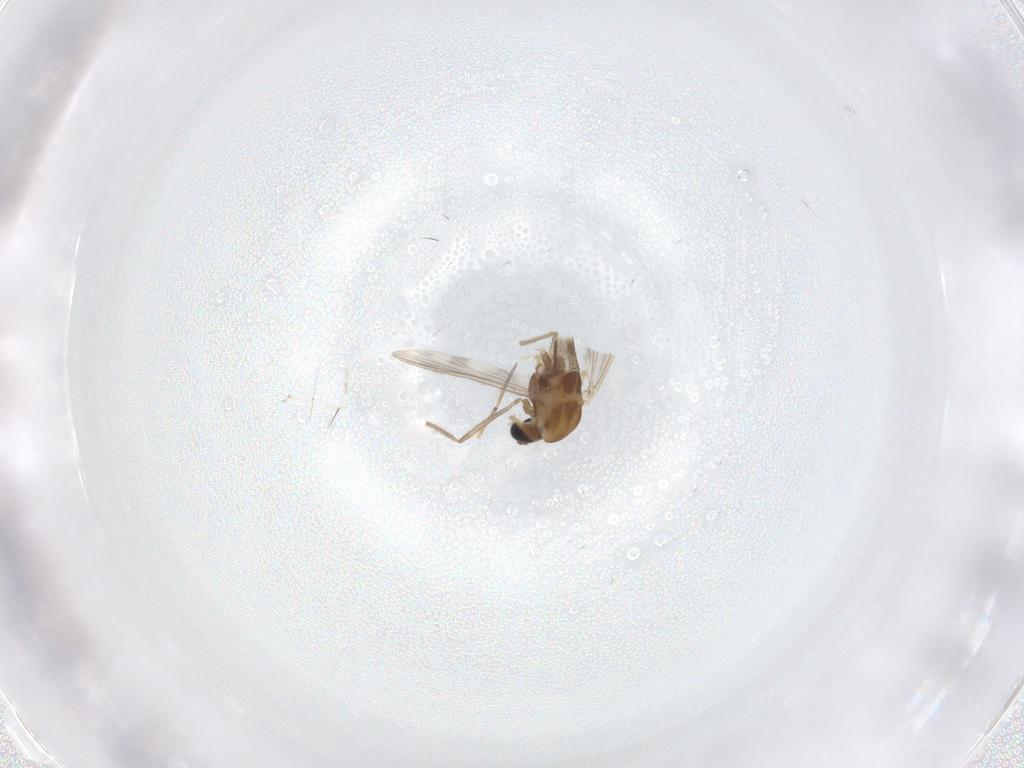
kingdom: Animalia
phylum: Arthropoda
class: Insecta
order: Diptera
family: Chironomidae
